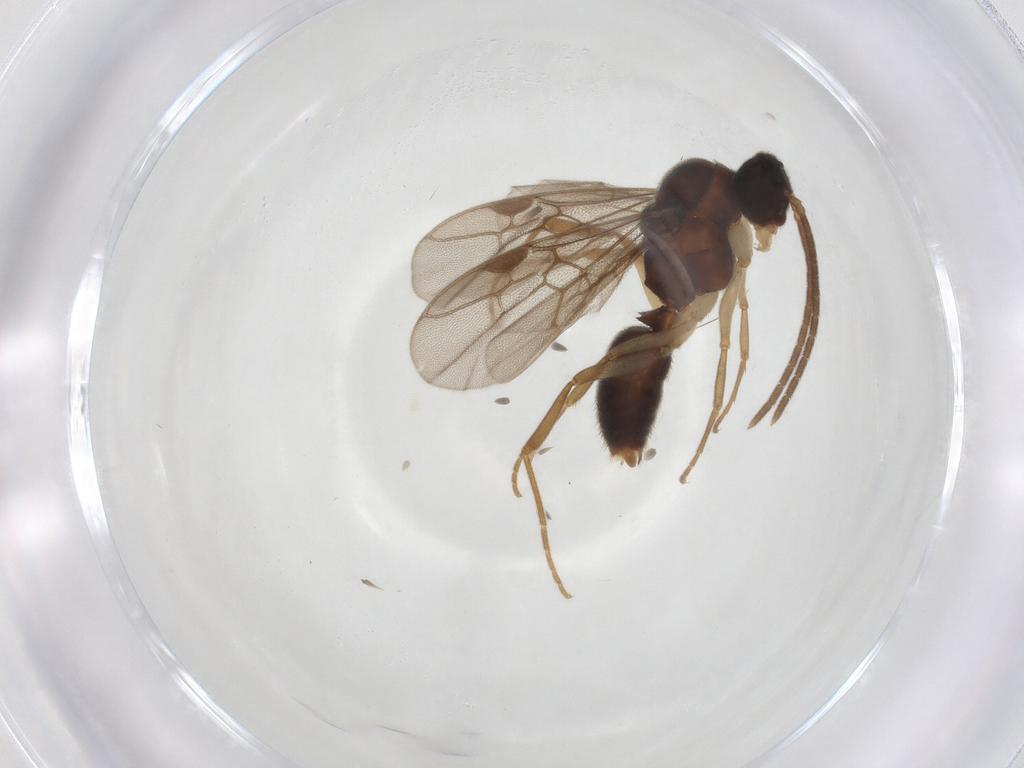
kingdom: Animalia
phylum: Arthropoda
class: Insecta
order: Hymenoptera
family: Formicidae
